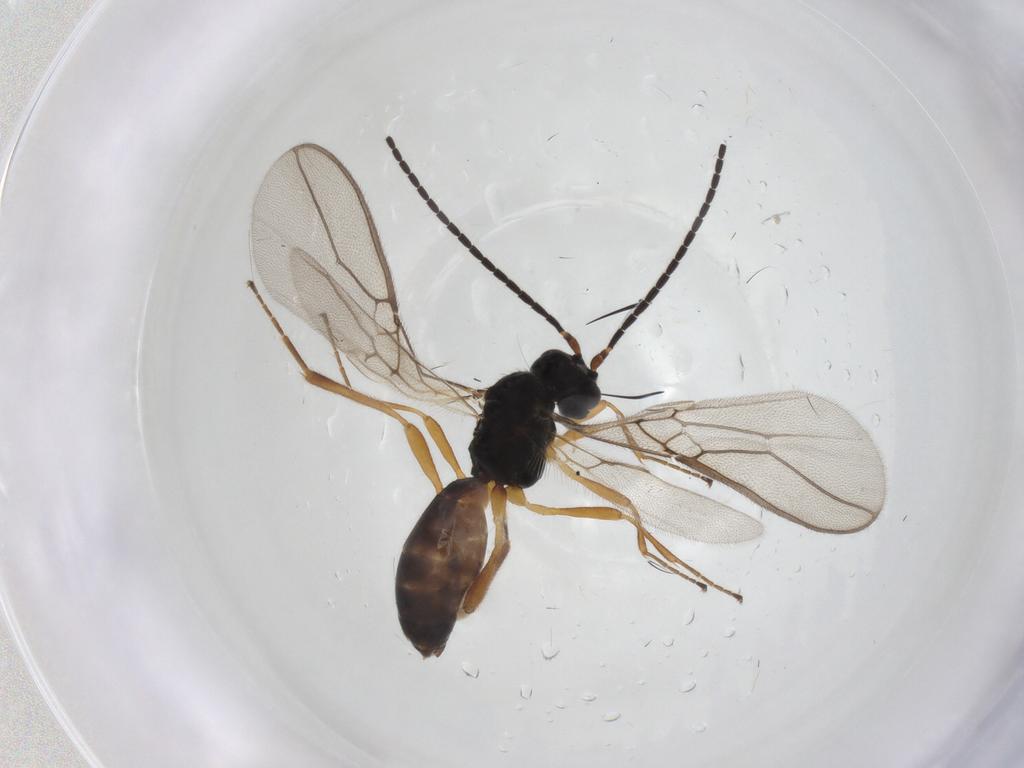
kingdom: Animalia
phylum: Arthropoda
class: Insecta
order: Hymenoptera
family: Braconidae
